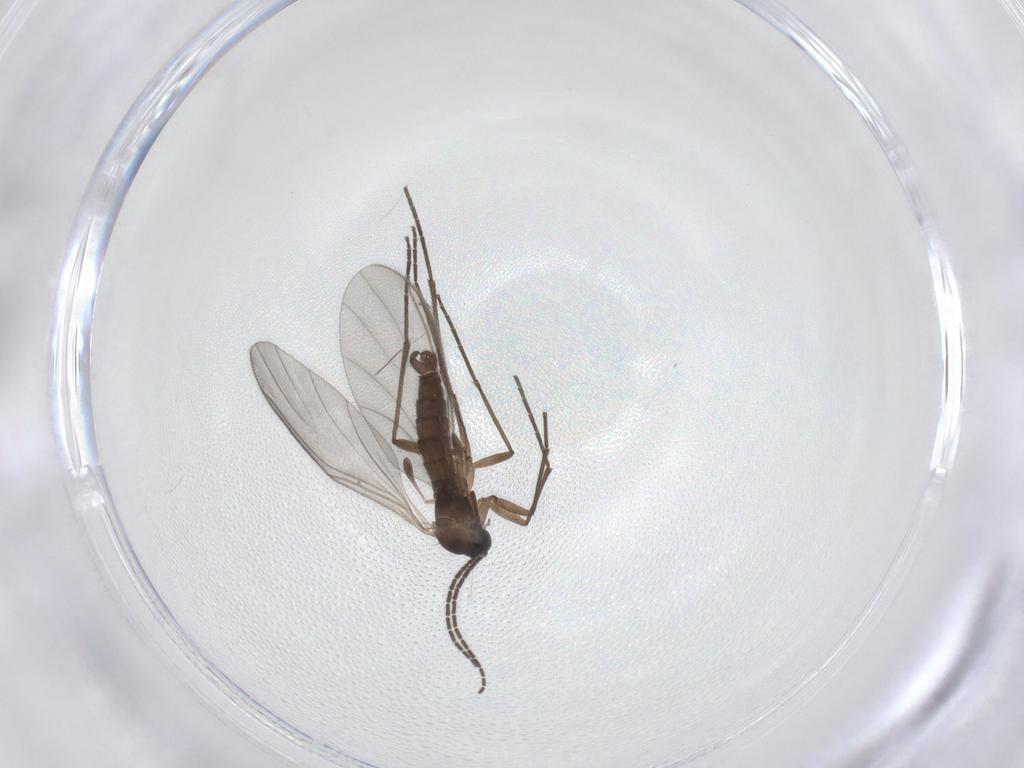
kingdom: Animalia
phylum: Arthropoda
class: Insecta
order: Diptera
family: Sciaridae
